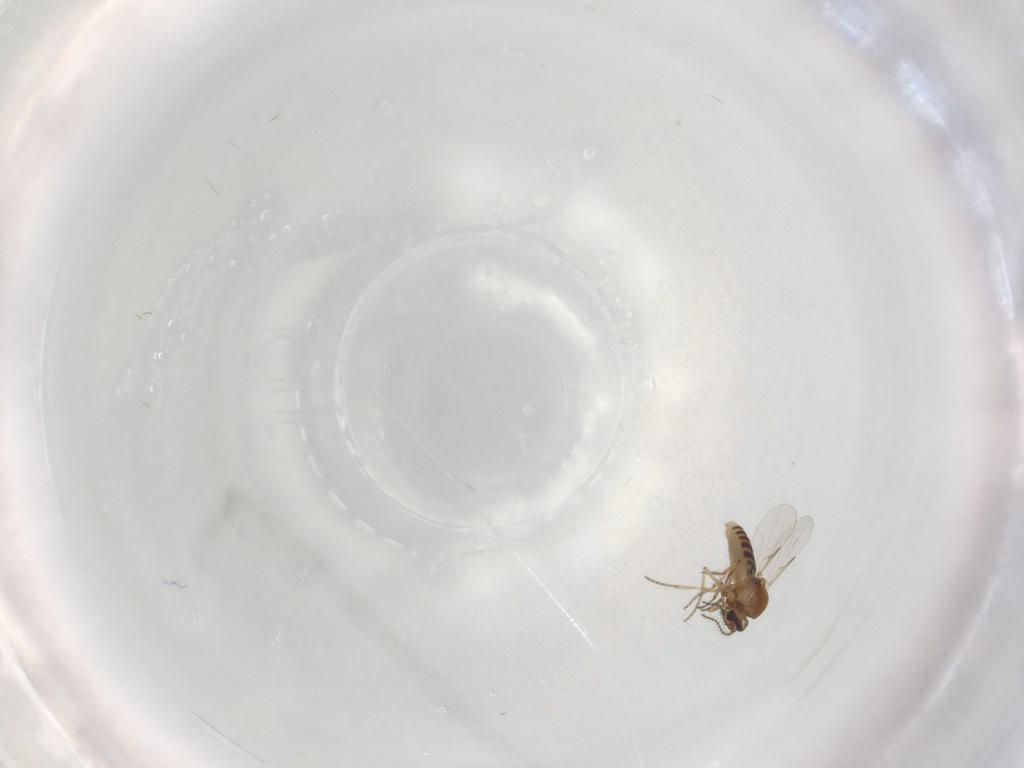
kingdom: Animalia
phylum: Arthropoda
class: Insecta
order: Diptera
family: Ceratopogonidae
